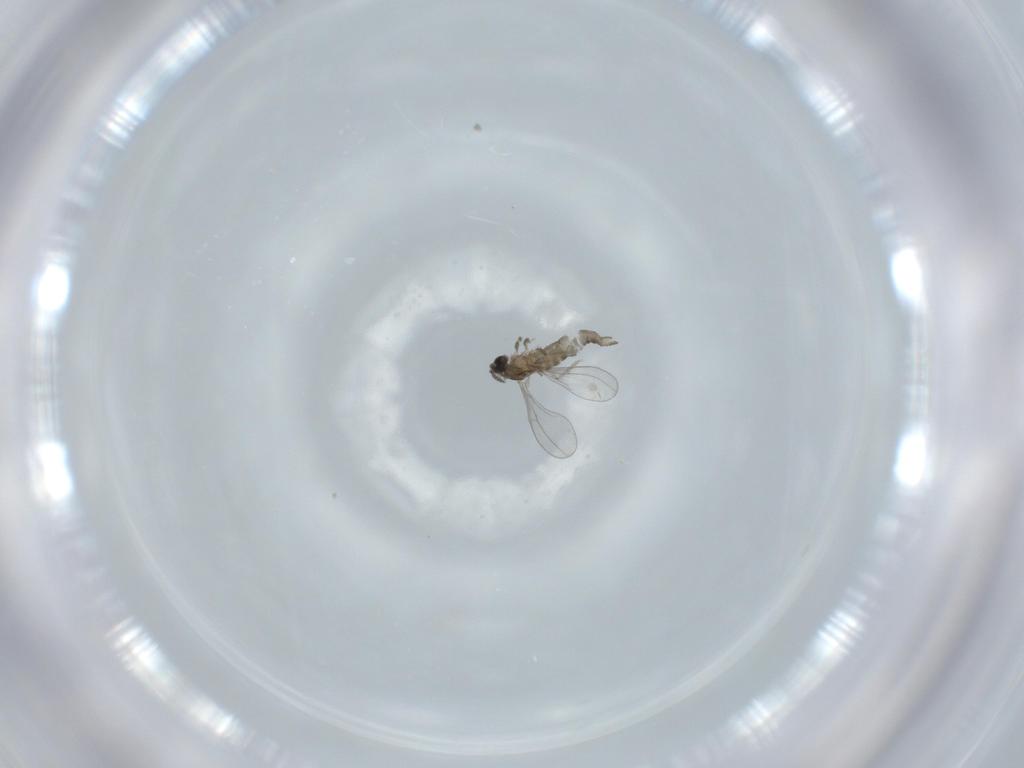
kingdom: Animalia
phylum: Arthropoda
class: Insecta
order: Diptera
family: Cecidomyiidae
